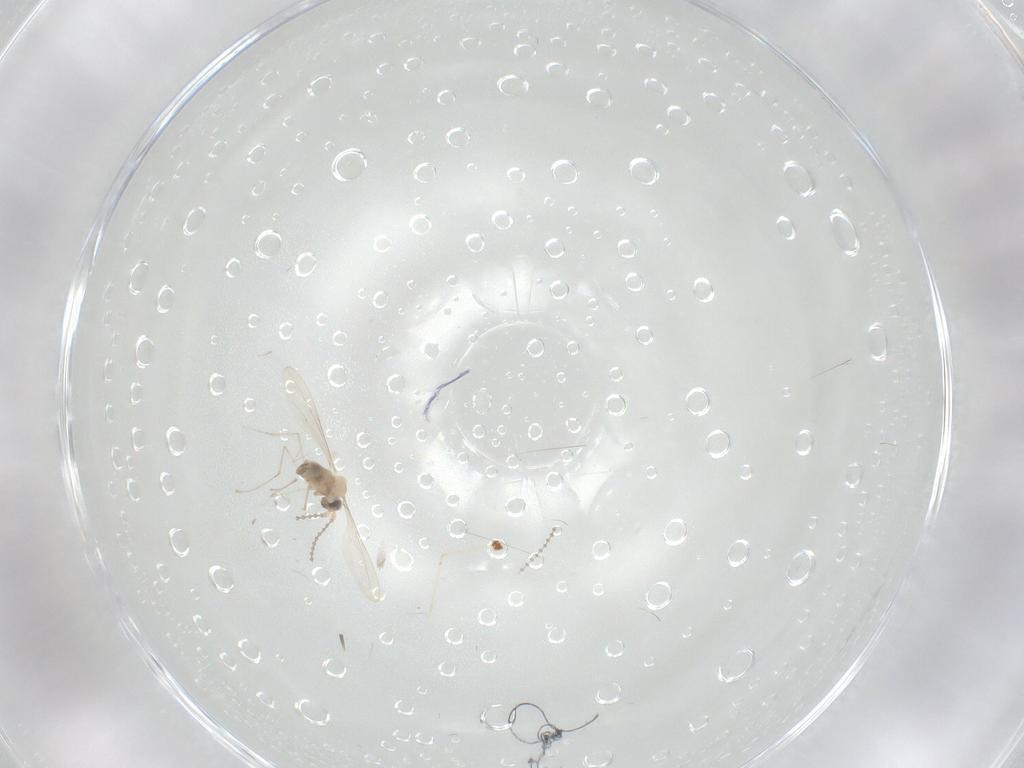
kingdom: Animalia
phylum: Arthropoda
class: Insecta
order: Diptera
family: Cecidomyiidae
